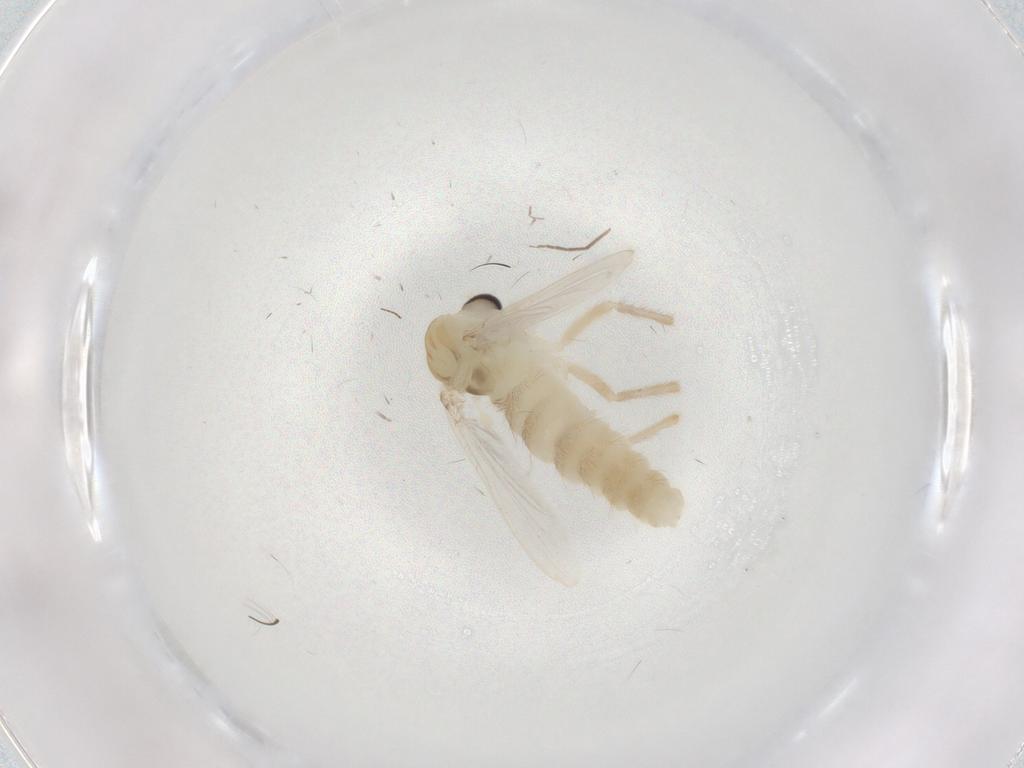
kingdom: Animalia
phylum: Arthropoda
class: Insecta
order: Diptera
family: Chironomidae
